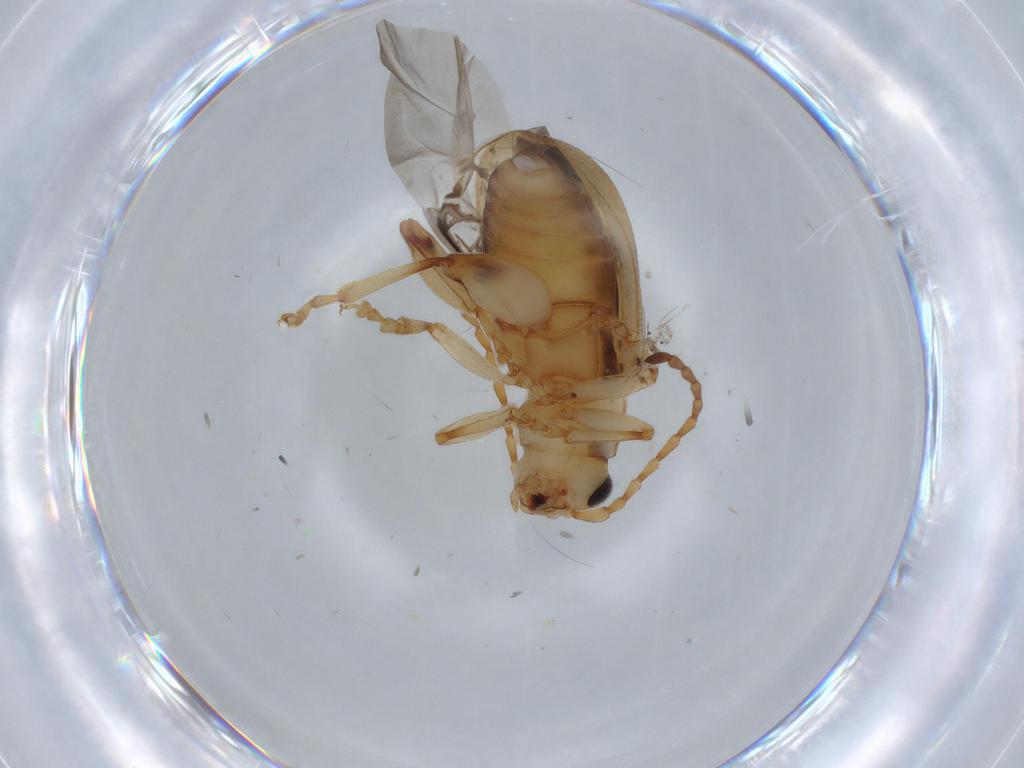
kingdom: Animalia
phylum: Arthropoda
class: Insecta
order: Coleoptera
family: Chrysomelidae
